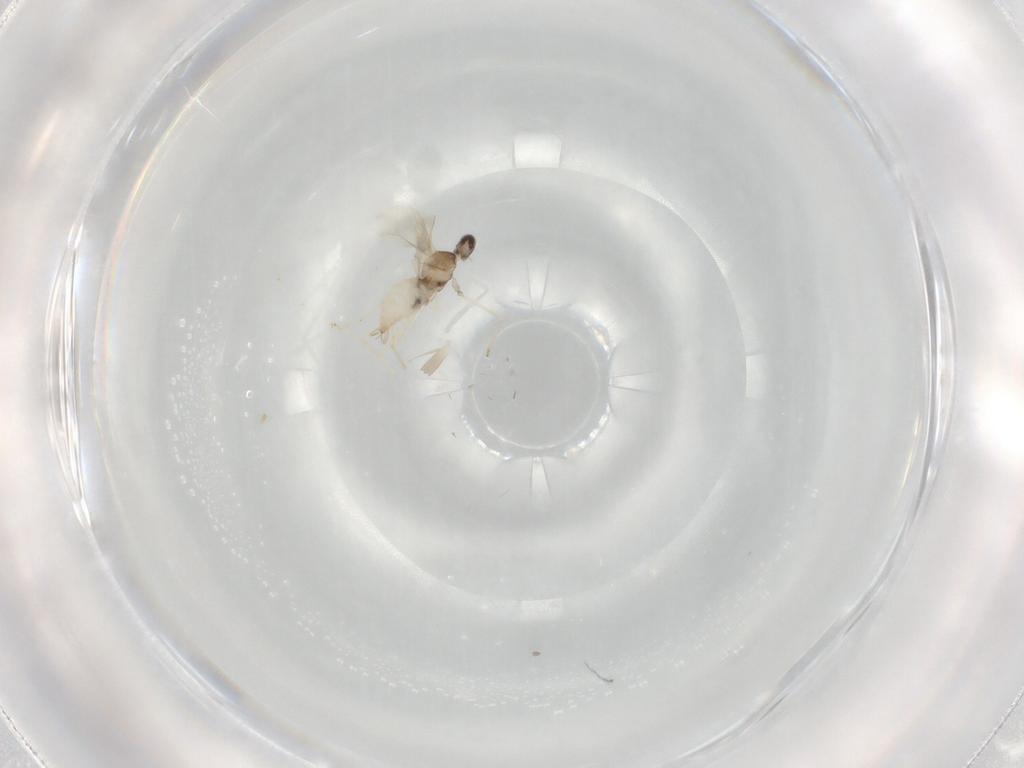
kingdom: Animalia
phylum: Arthropoda
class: Insecta
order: Diptera
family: Cecidomyiidae
